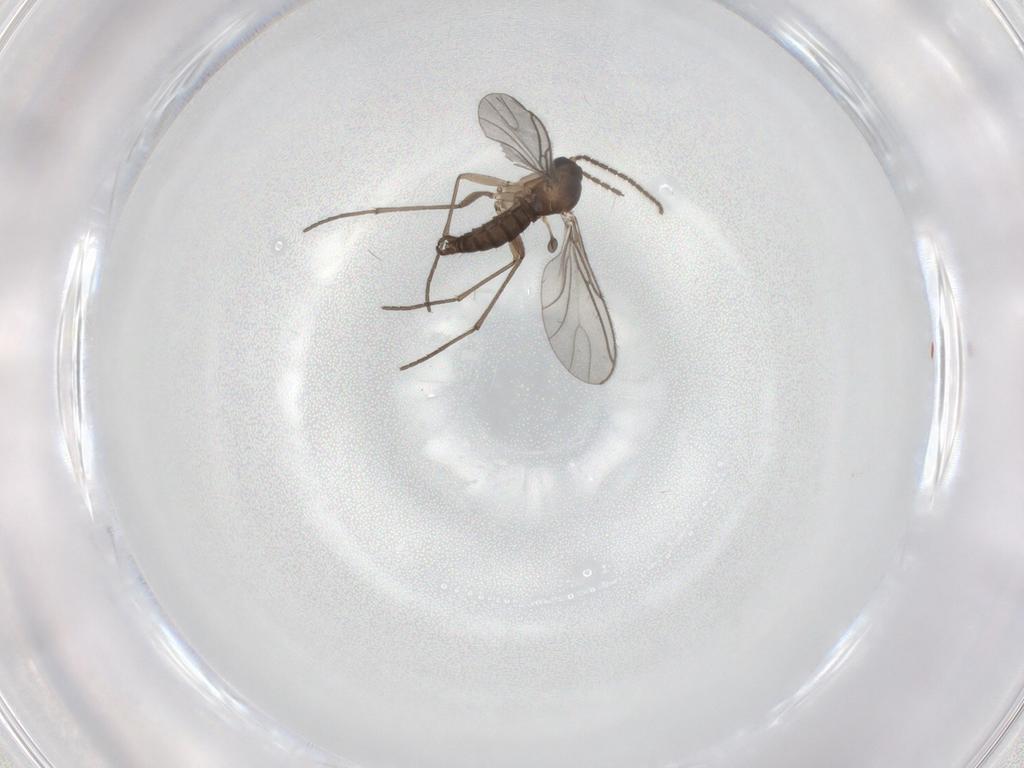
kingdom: Animalia
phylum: Arthropoda
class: Insecta
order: Diptera
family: Sciaridae
